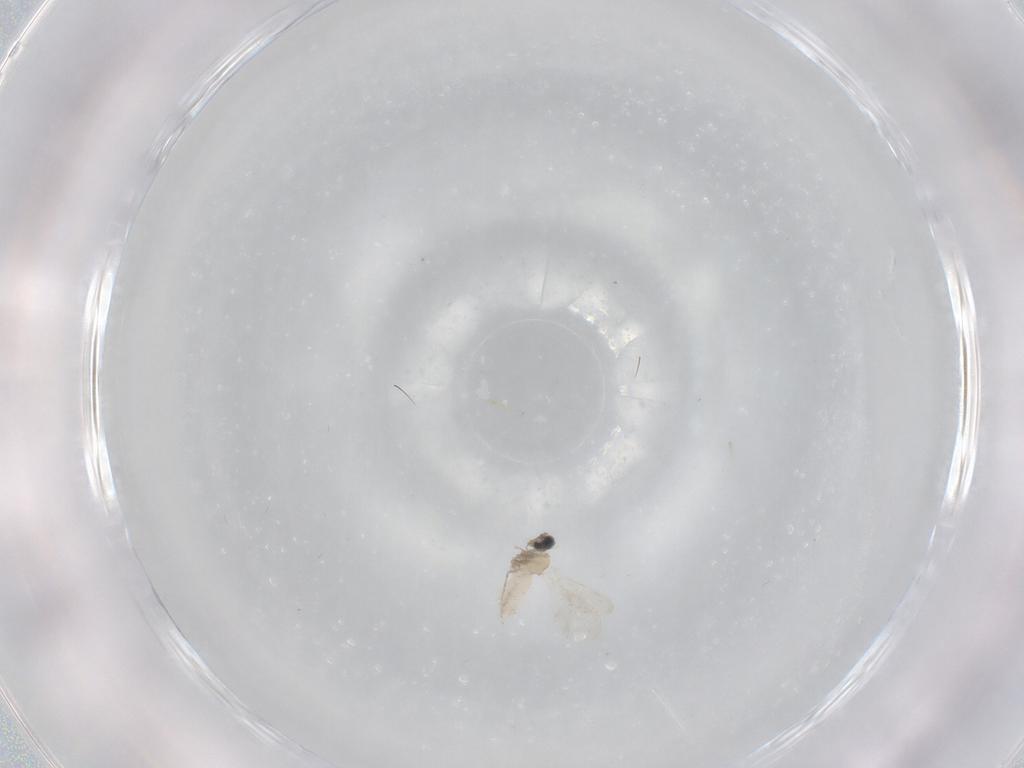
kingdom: Animalia
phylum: Arthropoda
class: Insecta
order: Diptera
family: Cecidomyiidae
